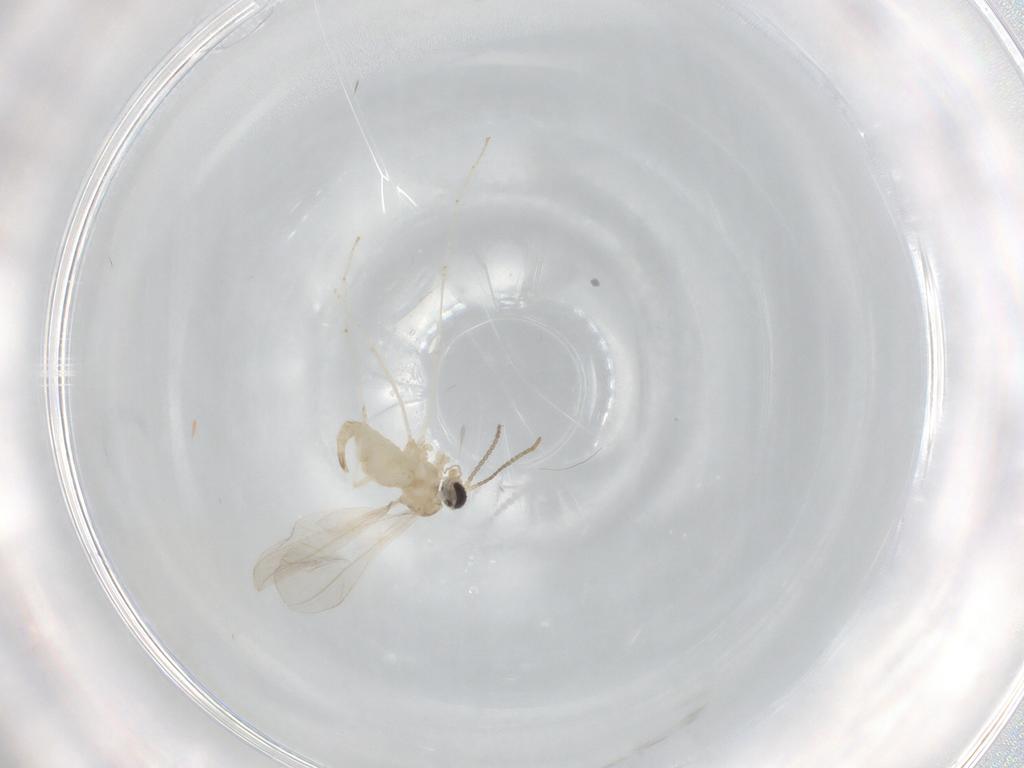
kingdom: Animalia
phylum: Arthropoda
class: Insecta
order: Diptera
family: Cecidomyiidae
